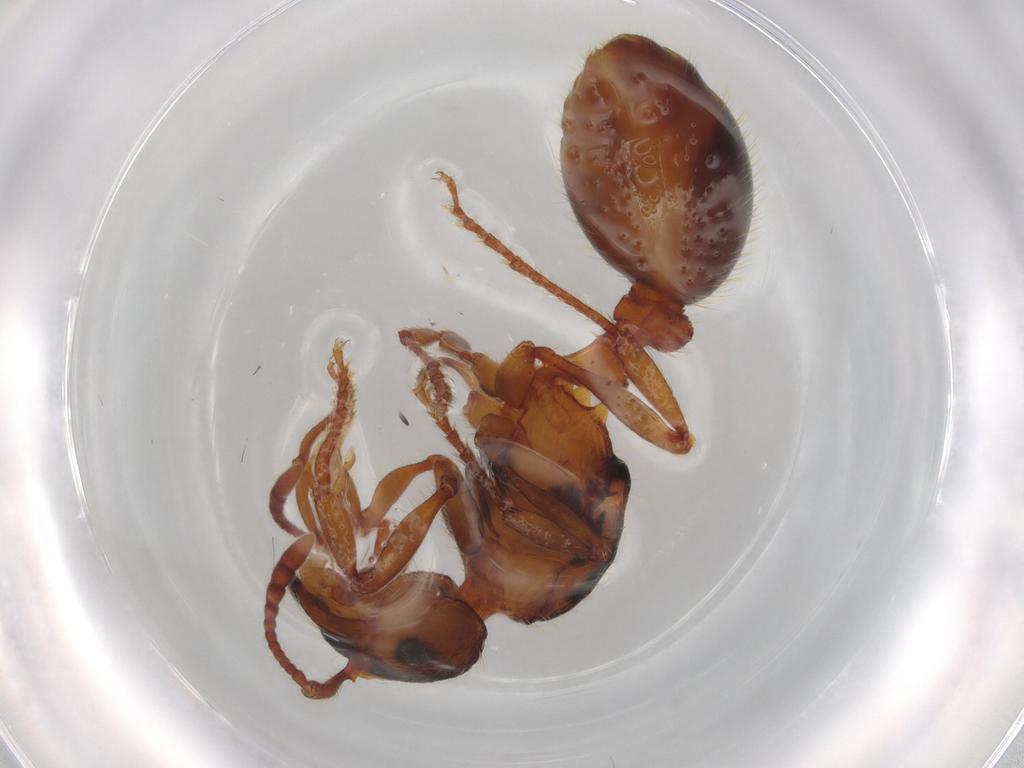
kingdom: Animalia
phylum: Arthropoda
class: Insecta
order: Hymenoptera
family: Formicidae
